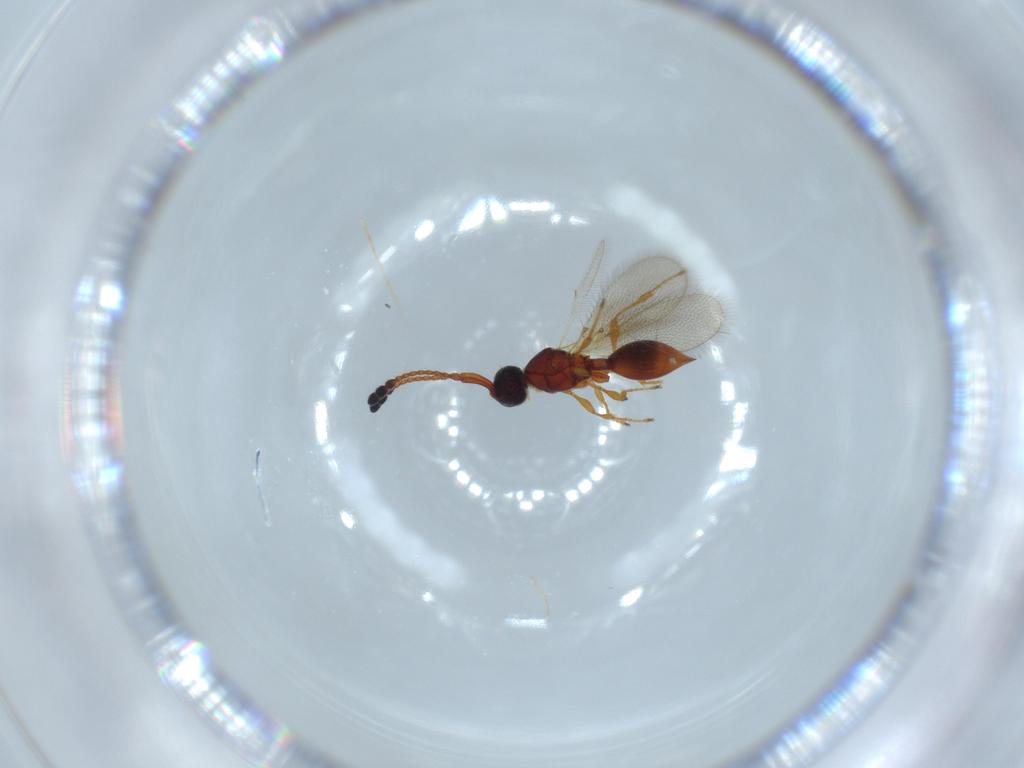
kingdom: Animalia
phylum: Arthropoda
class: Insecta
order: Hymenoptera
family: Diapriidae
